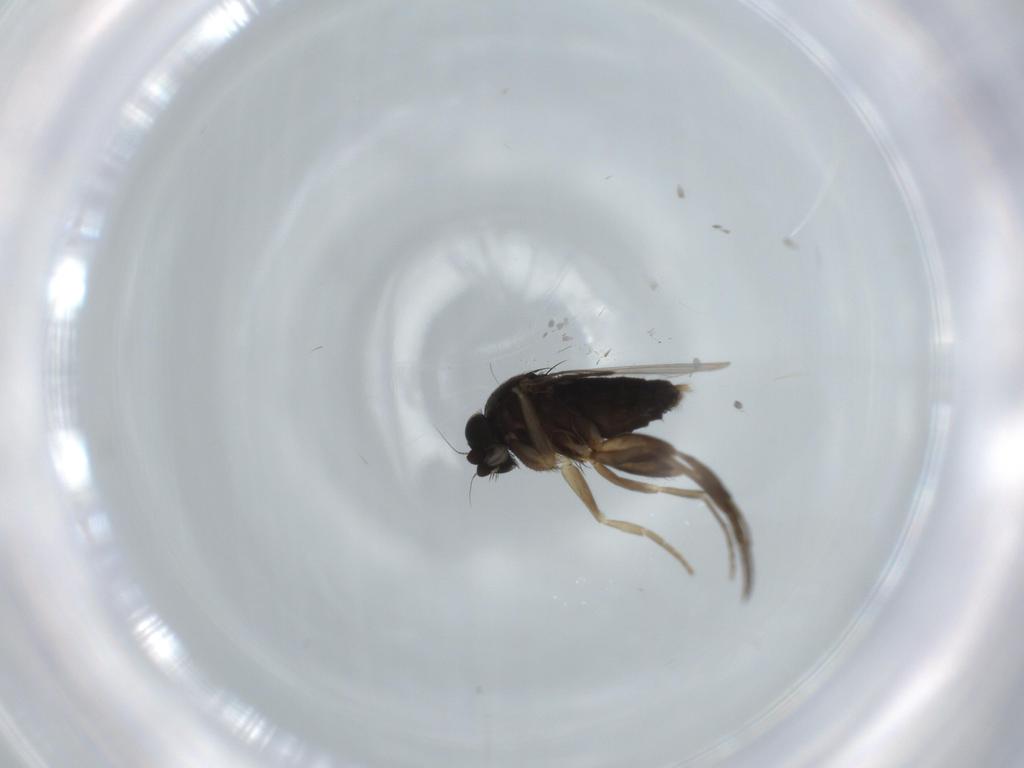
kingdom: Animalia
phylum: Arthropoda
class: Insecta
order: Diptera
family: Phoridae
